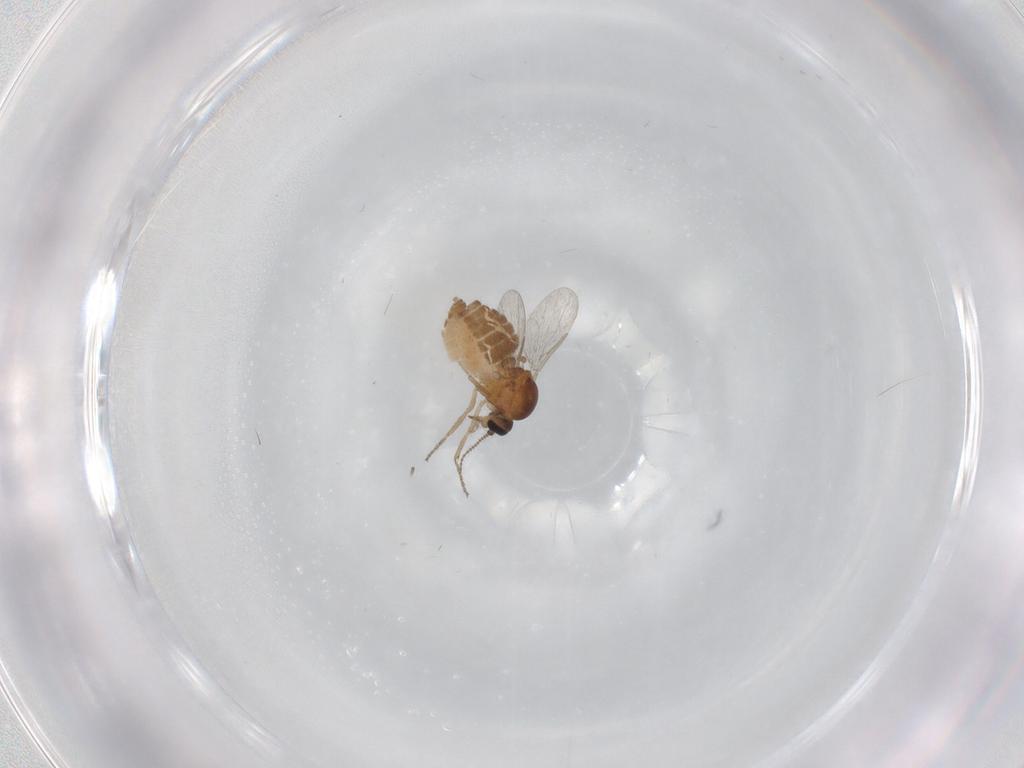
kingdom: Animalia
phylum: Arthropoda
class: Insecta
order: Diptera
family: Ceratopogonidae
